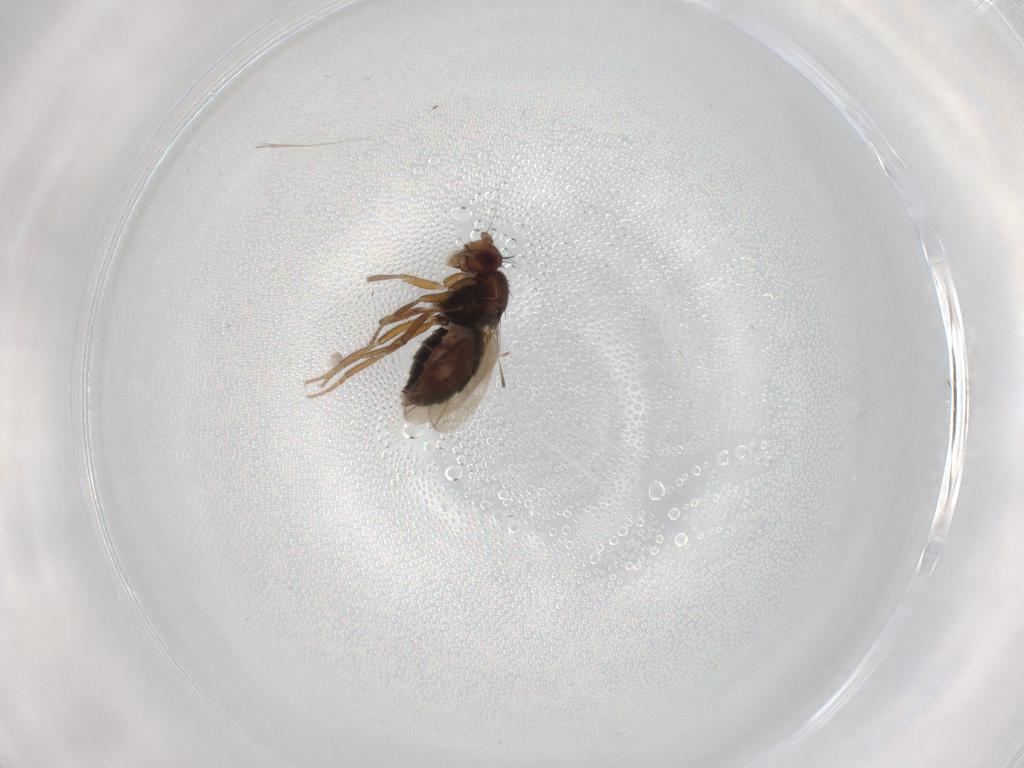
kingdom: Animalia
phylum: Arthropoda
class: Insecta
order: Diptera
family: Sphaeroceridae
